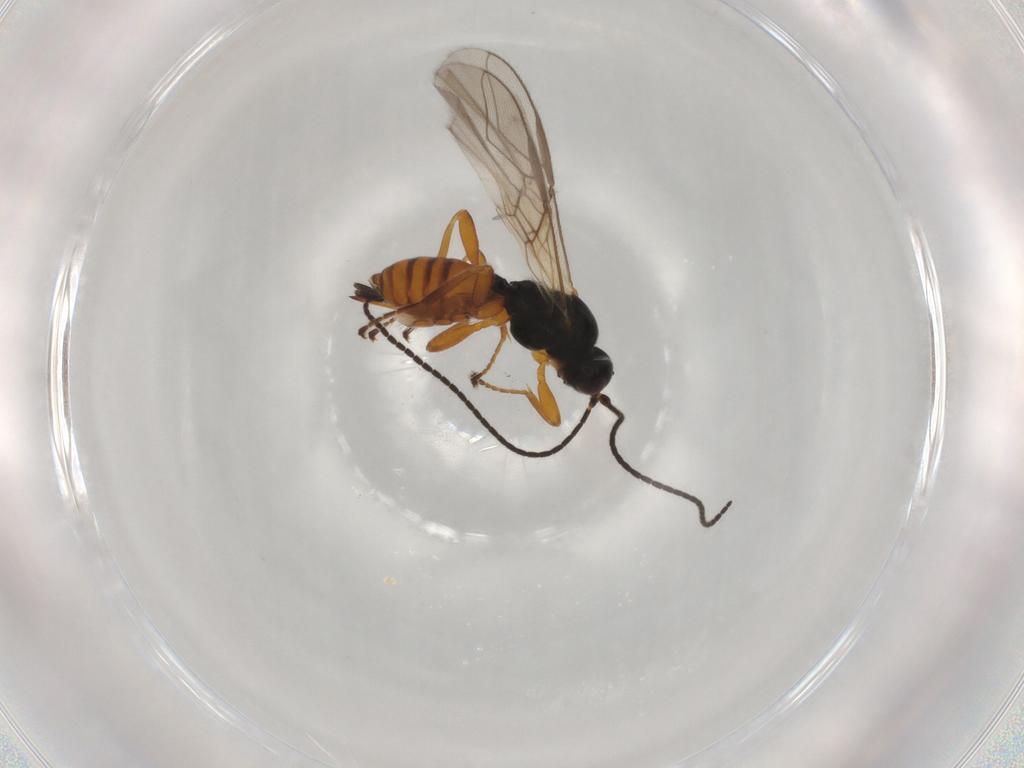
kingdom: Animalia
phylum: Arthropoda
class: Insecta
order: Hymenoptera
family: Braconidae
